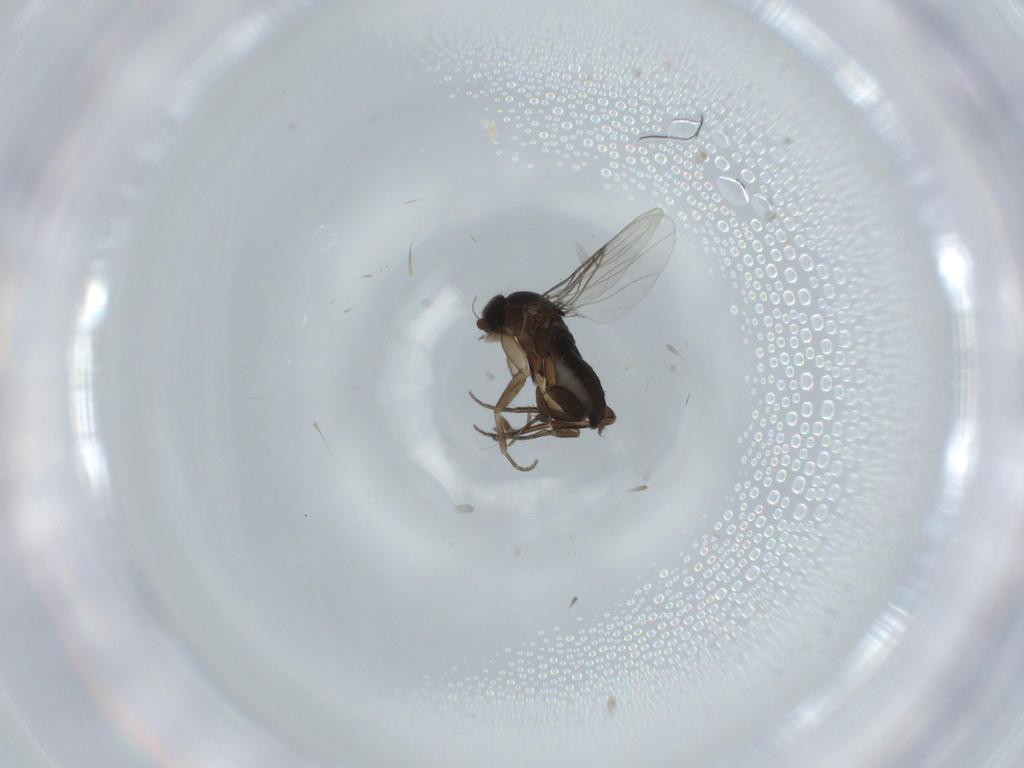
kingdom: Animalia
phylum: Arthropoda
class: Insecta
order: Diptera
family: Phoridae
